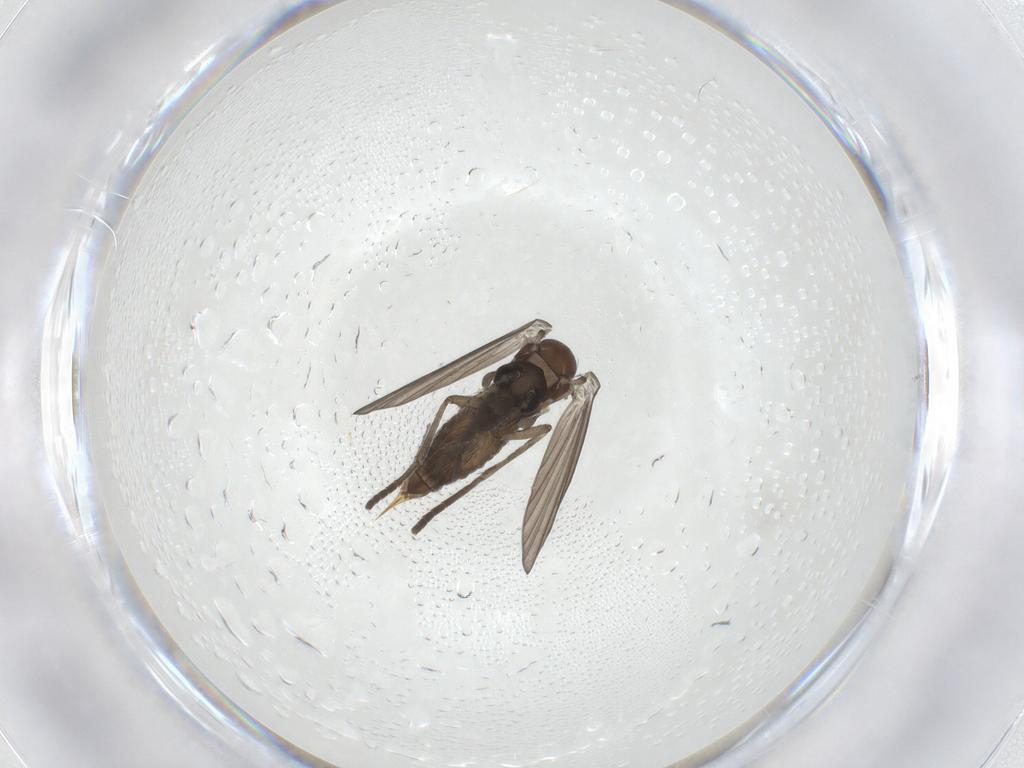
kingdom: Animalia
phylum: Arthropoda
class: Insecta
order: Diptera
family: Cecidomyiidae
